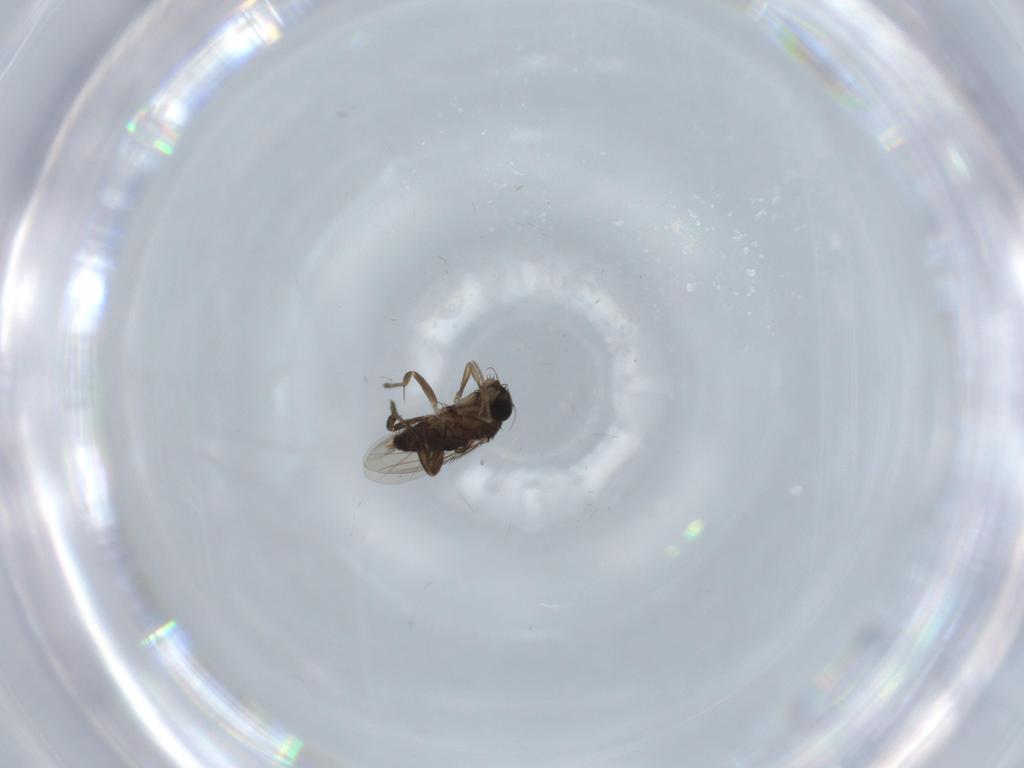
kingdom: Animalia
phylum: Arthropoda
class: Insecta
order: Diptera
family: Phoridae
